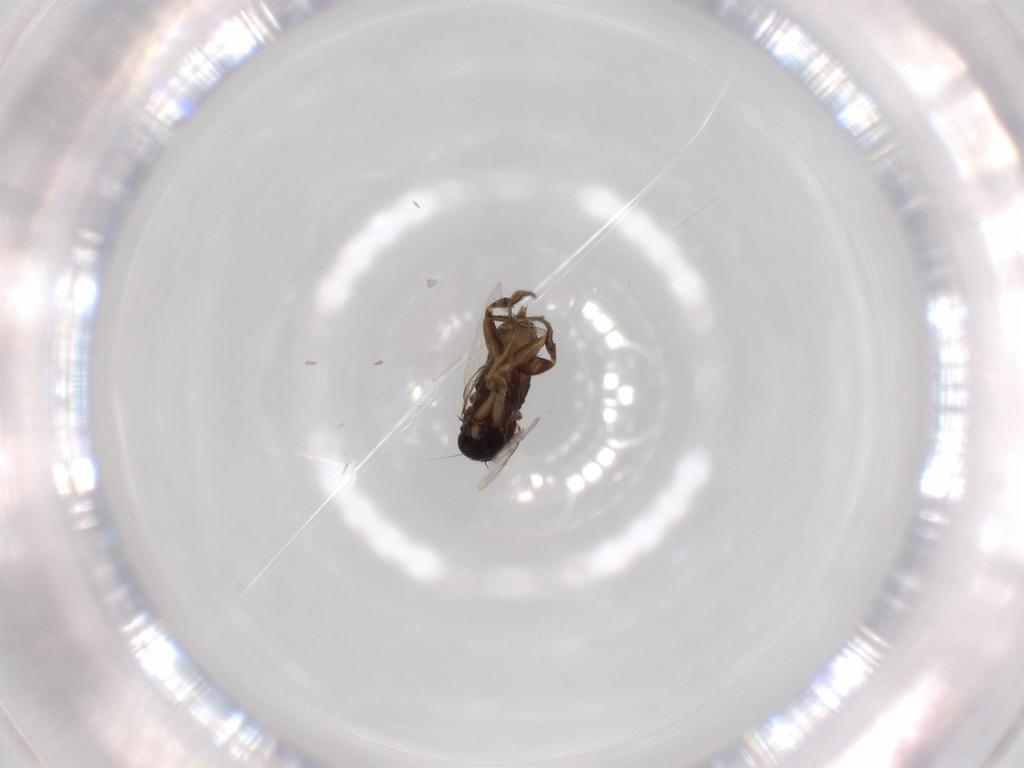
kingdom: Animalia
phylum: Arthropoda
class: Insecta
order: Diptera
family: Phoridae
